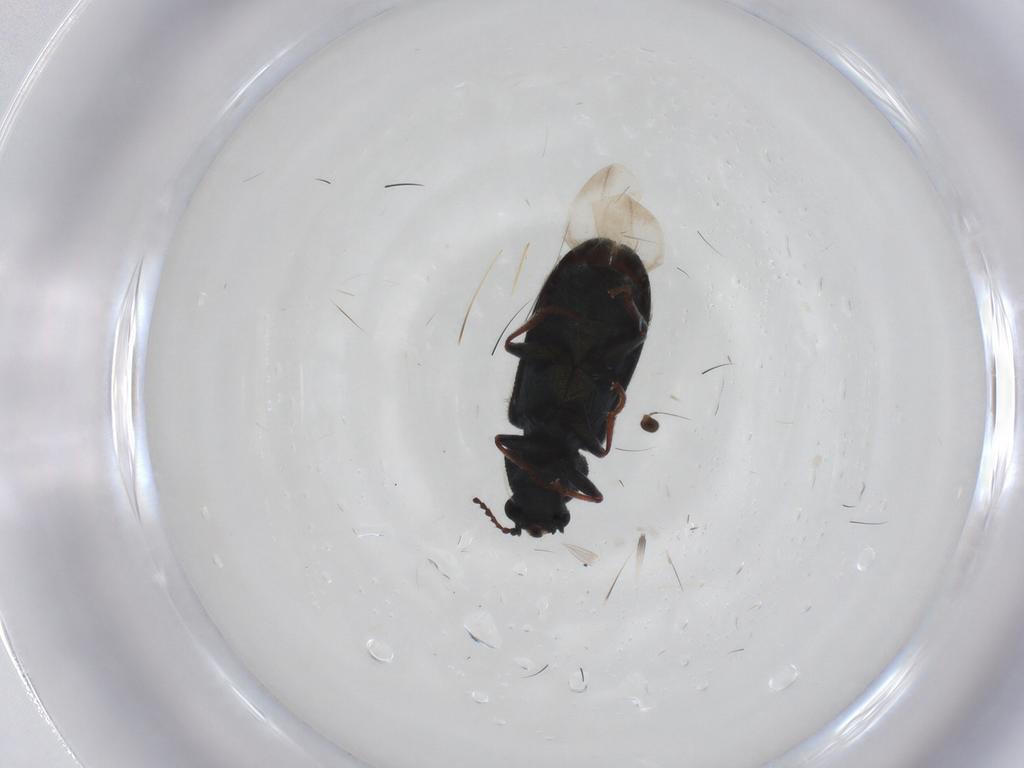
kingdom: Animalia
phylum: Arthropoda
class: Insecta
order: Coleoptera
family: Melyridae
